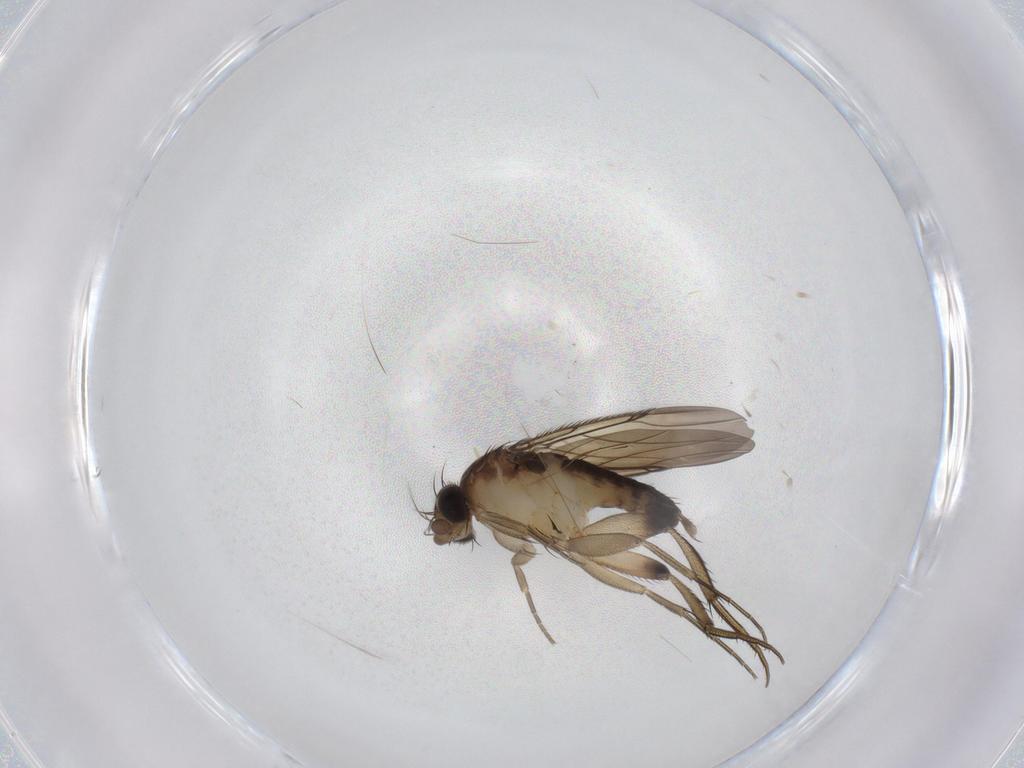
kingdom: Animalia
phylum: Arthropoda
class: Insecta
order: Diptera
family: Phoridae
